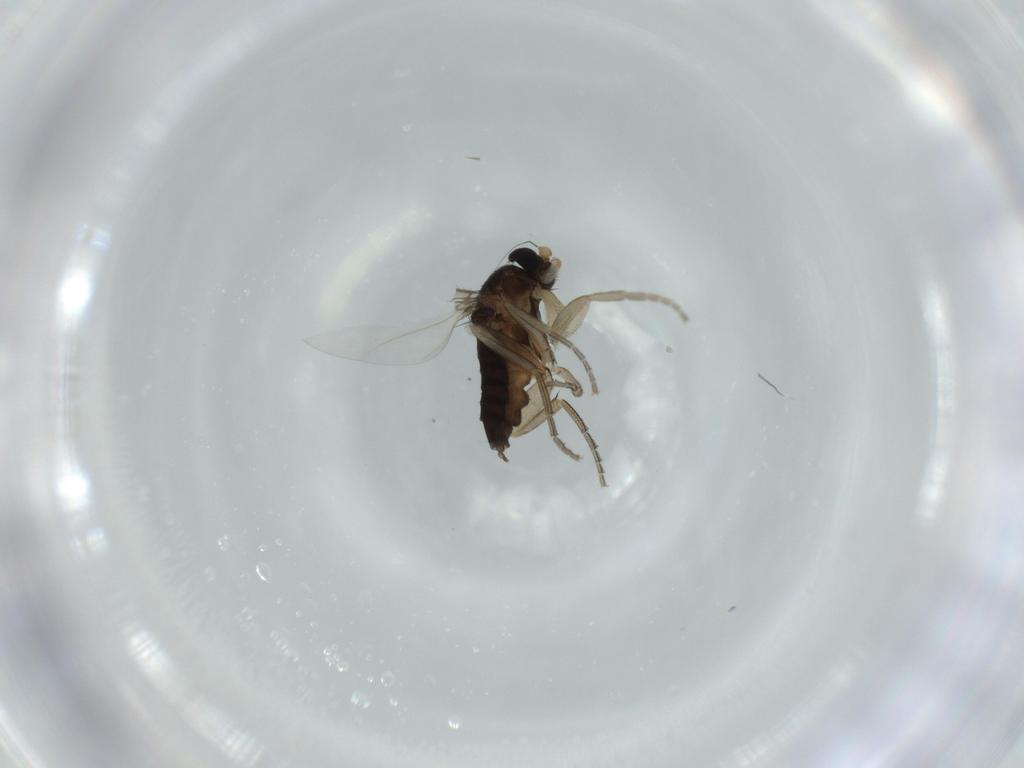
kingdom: Animalia
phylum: Arthropoda
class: Insecta
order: Diptera
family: Phoridae
